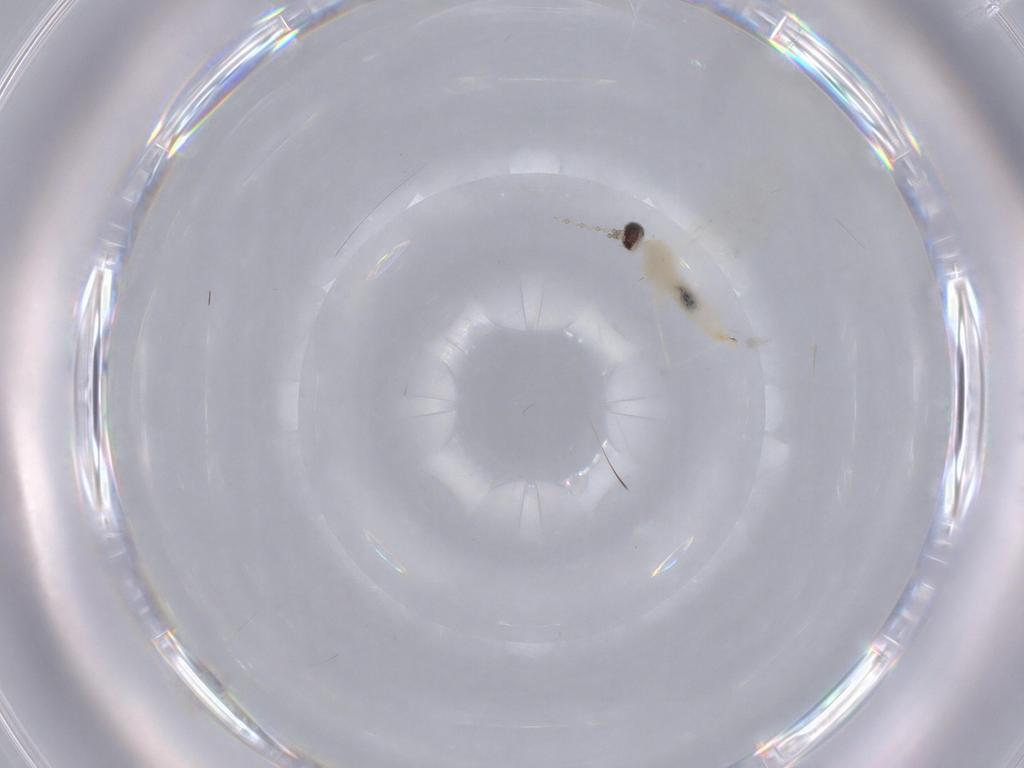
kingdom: Animalia
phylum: Arthropoda
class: Insecta
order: Diptera
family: Cecidomyiidae
